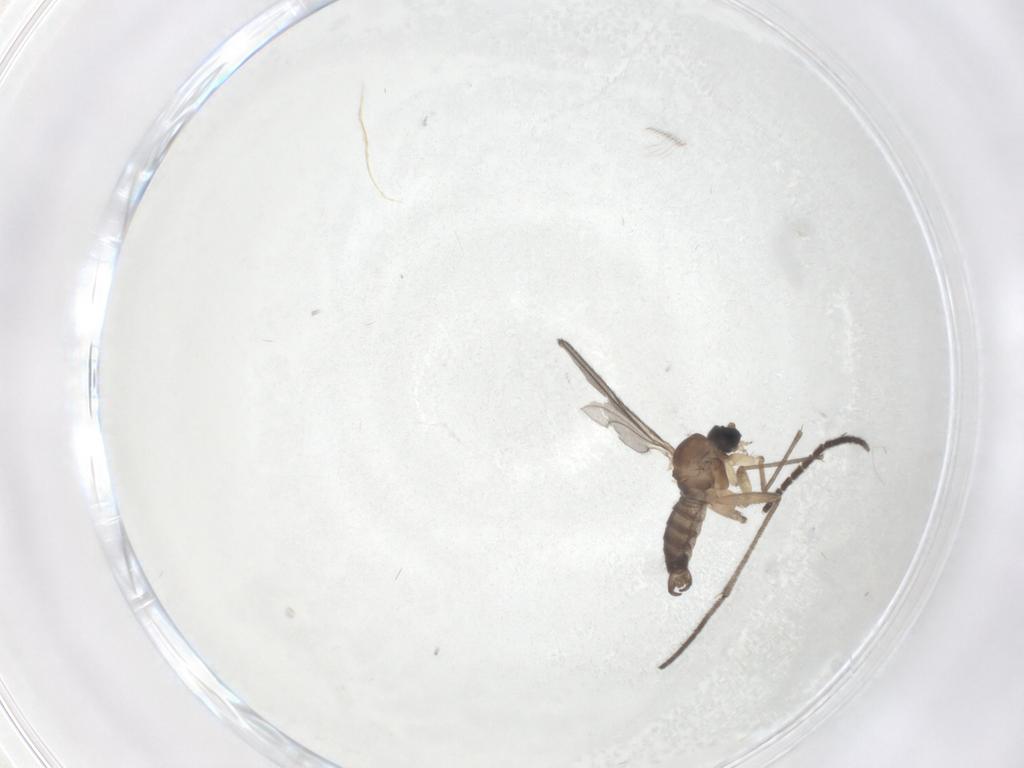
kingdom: Animalia
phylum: Arthropoda
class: Insecta
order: Diptera
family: Sciaridae
